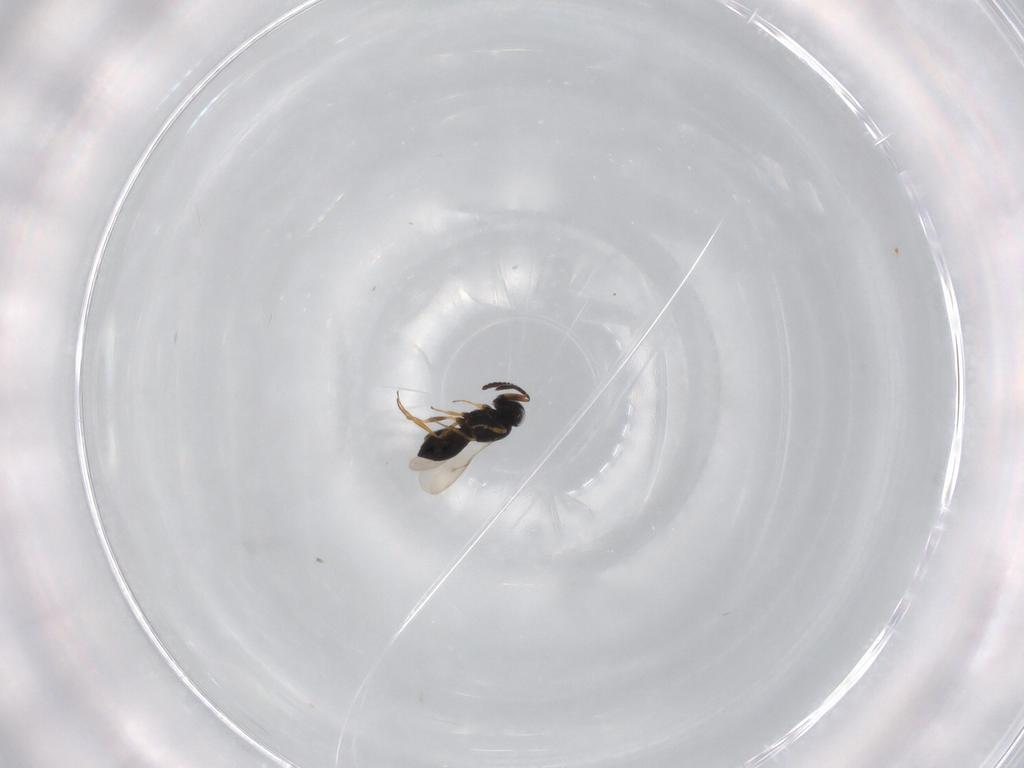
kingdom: Animalia
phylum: Arthropoda
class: Insecta
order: Hymenoptera
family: Scelionidae
